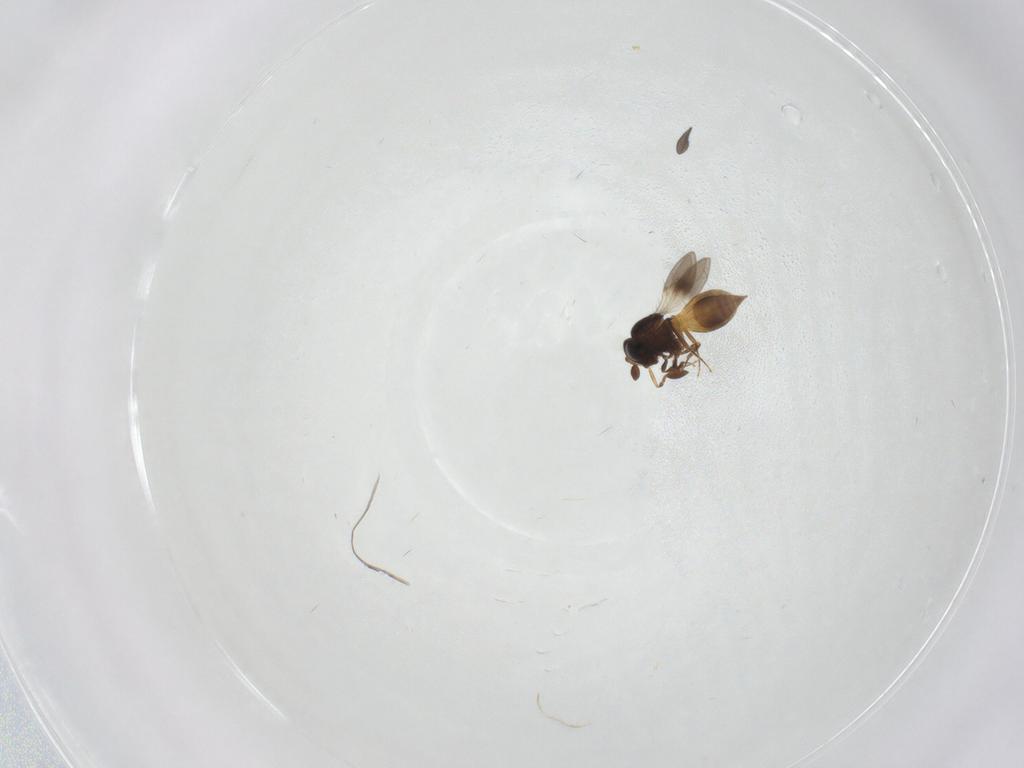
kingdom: Animalia
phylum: Arthropoda
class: Insecta
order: Hymenoptera
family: Scelionidae
